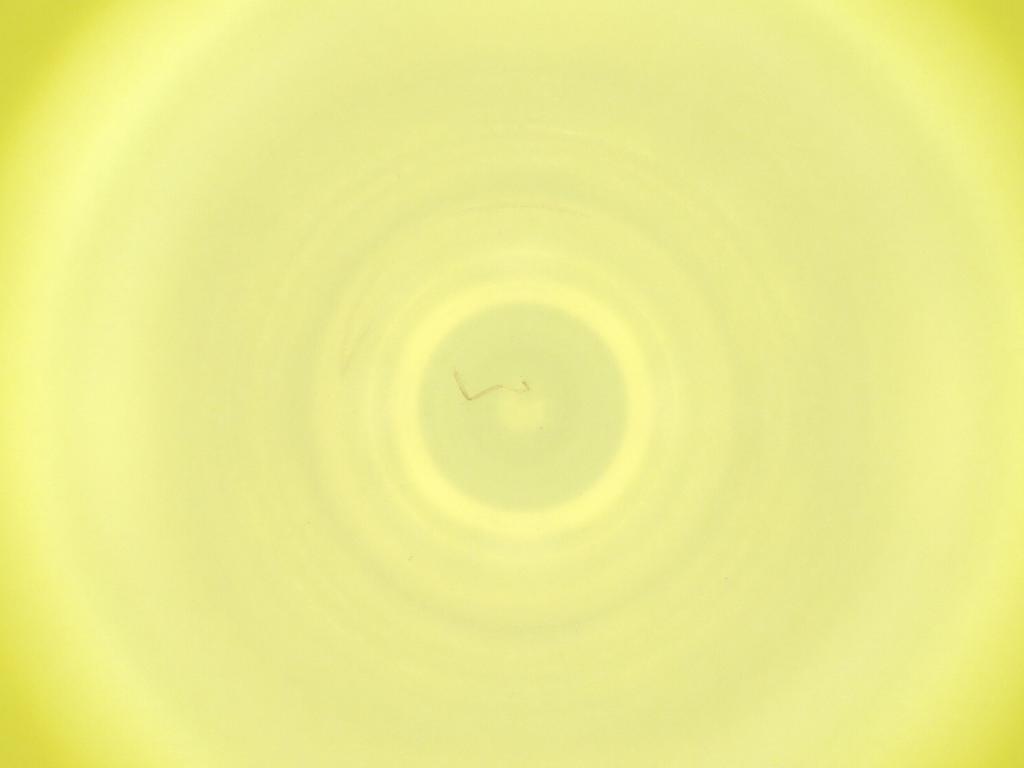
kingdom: Animalia
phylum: Arthropoda
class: Insecta
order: Diptera
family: Cecidomyiidae
